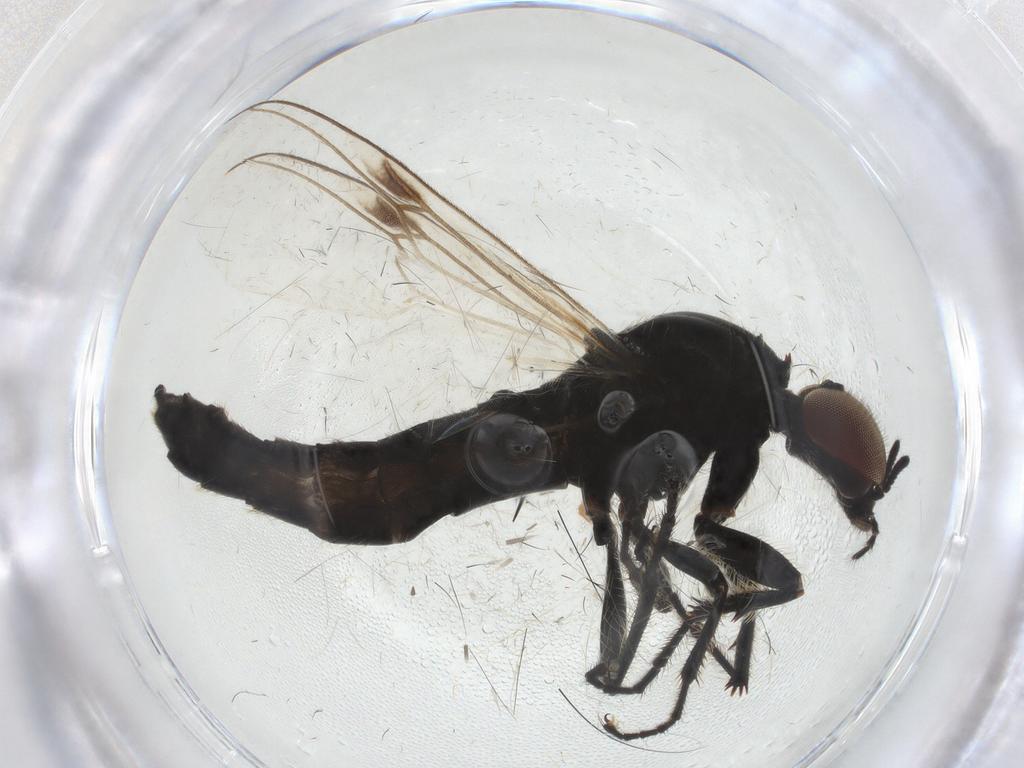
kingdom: Animalia
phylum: Arthropoda
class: Insecta
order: Diptera
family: Bibionidae
